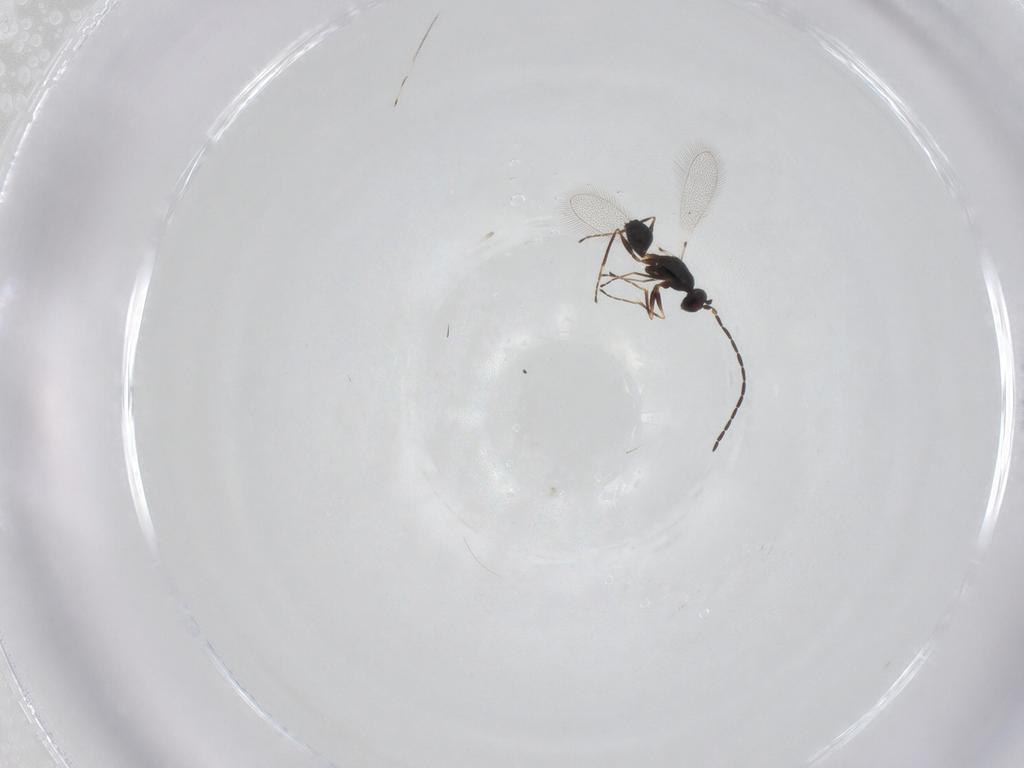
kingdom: Animalia
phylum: Arthropoda
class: Insecta
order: Hymenoptera
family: Mymaridae
